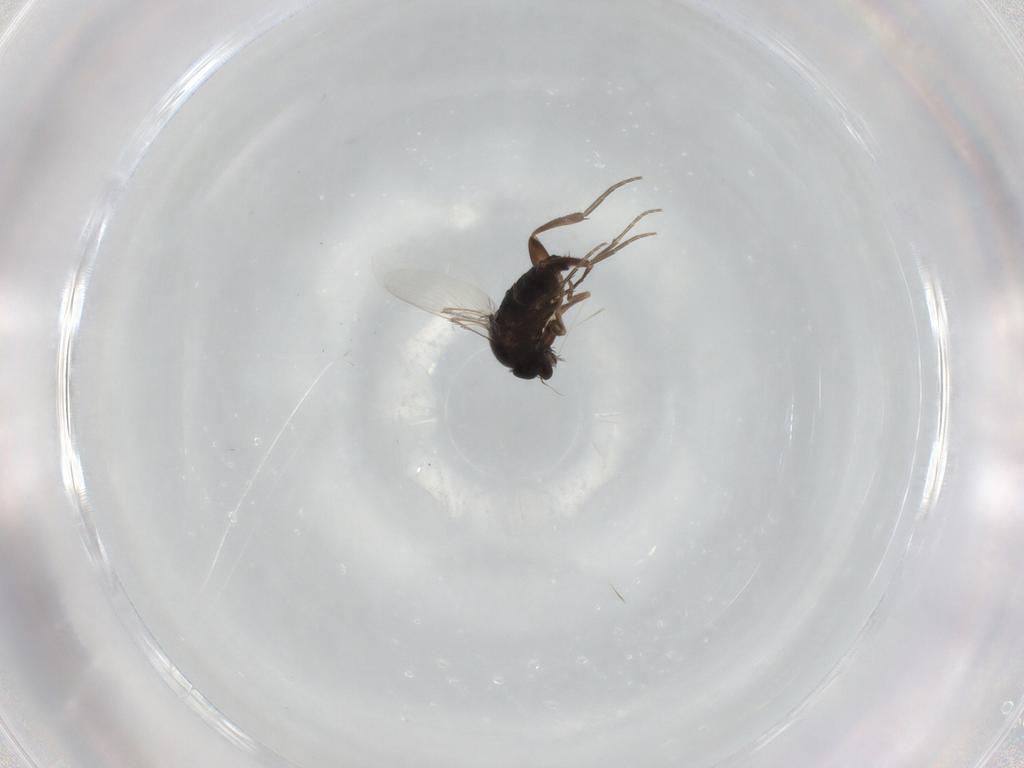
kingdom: Animalia
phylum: Arthropoda
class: Insecta
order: Diptera
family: Phoridae
